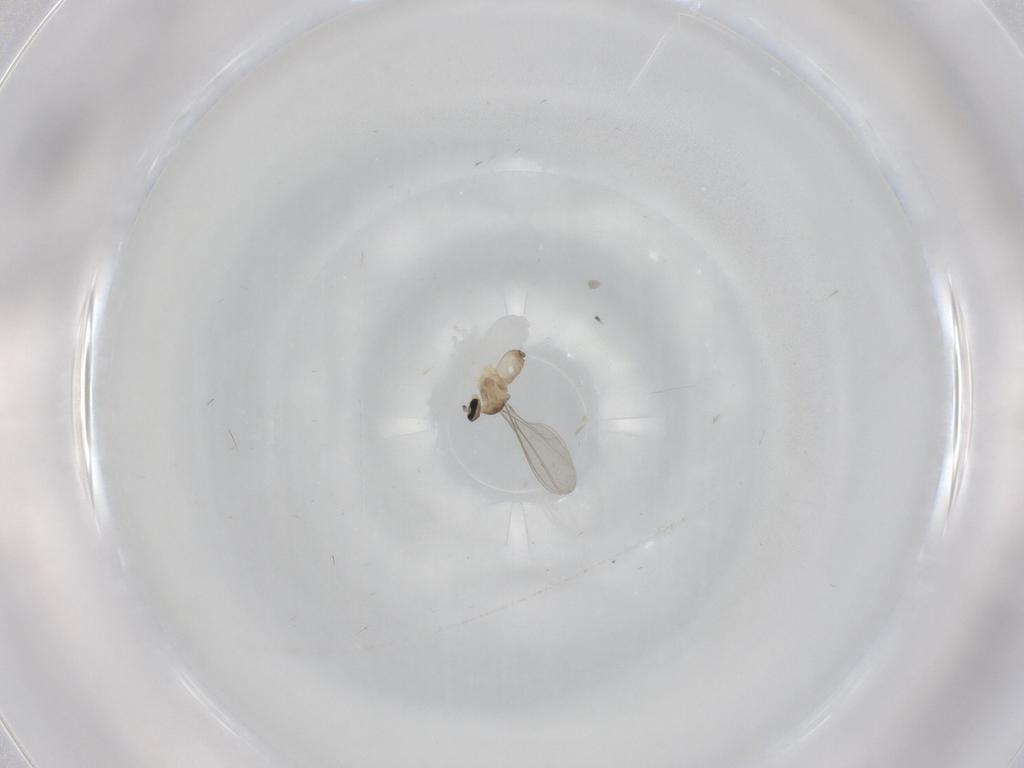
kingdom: Animalia
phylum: Arthropoda
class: Insecta
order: Diptera
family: Cecidomyiidae
